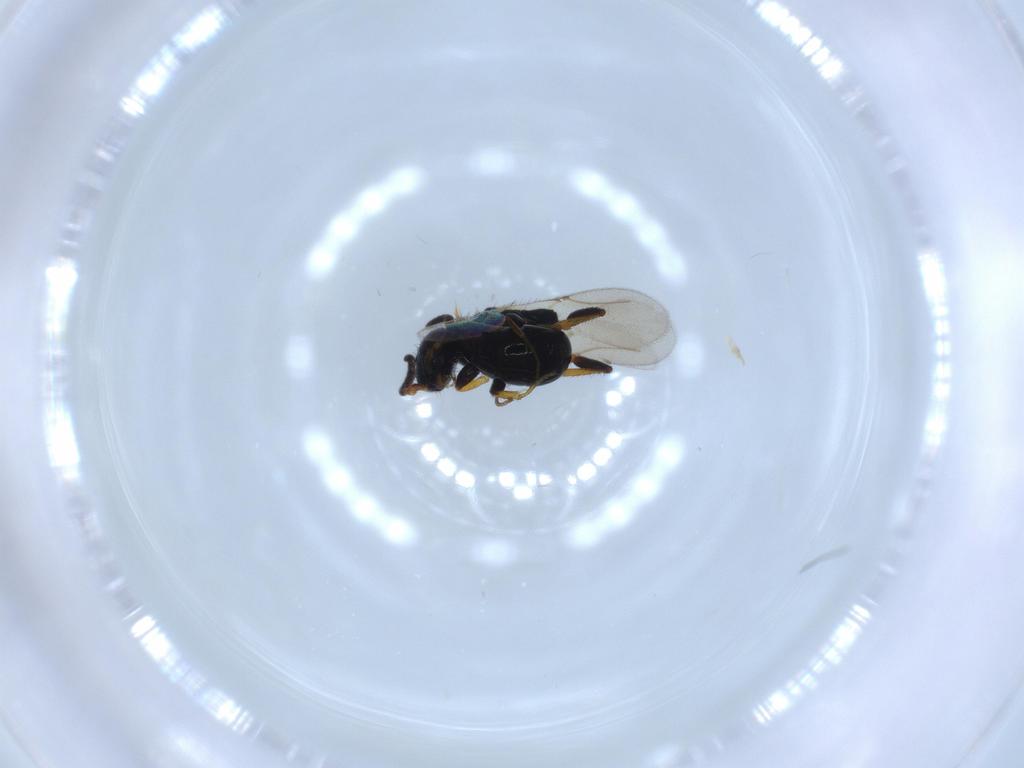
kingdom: Animalia
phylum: Arthropoda
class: Insecta
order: Hymenoptera
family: Bethylidae
